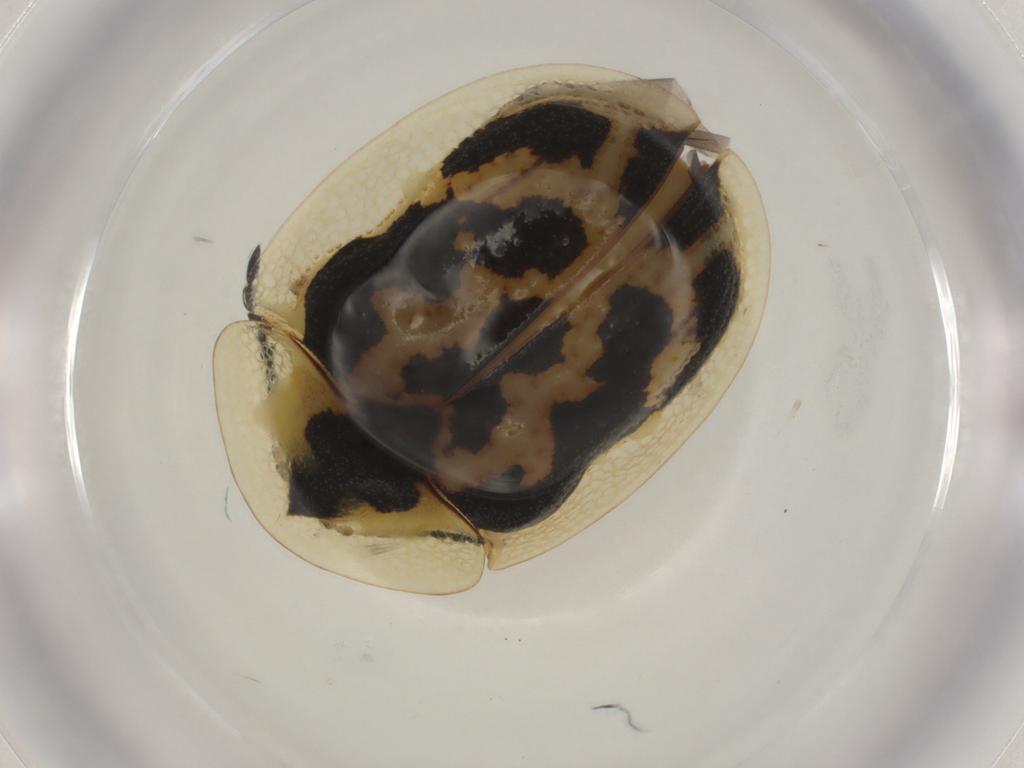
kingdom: Animalia
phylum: Arthropoda
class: Insecta
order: Coleoptera
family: Chrysomelidae
